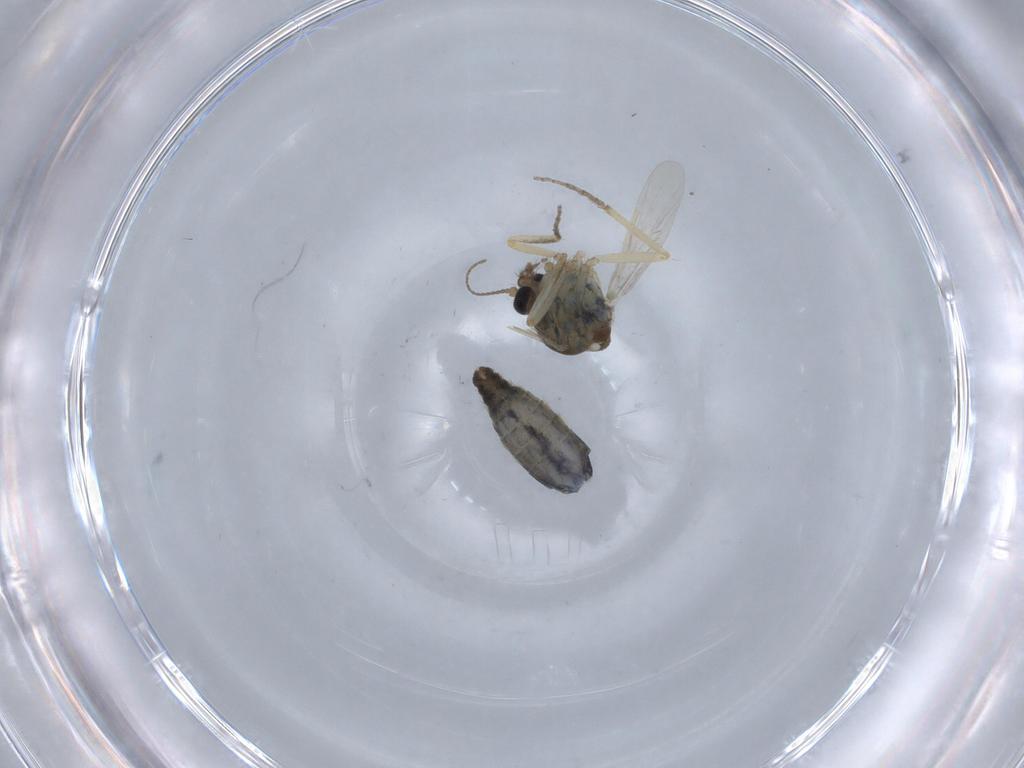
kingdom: Animalia
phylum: Arthropoda
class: Insecta
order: Diptera
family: Ceratopogonidae
